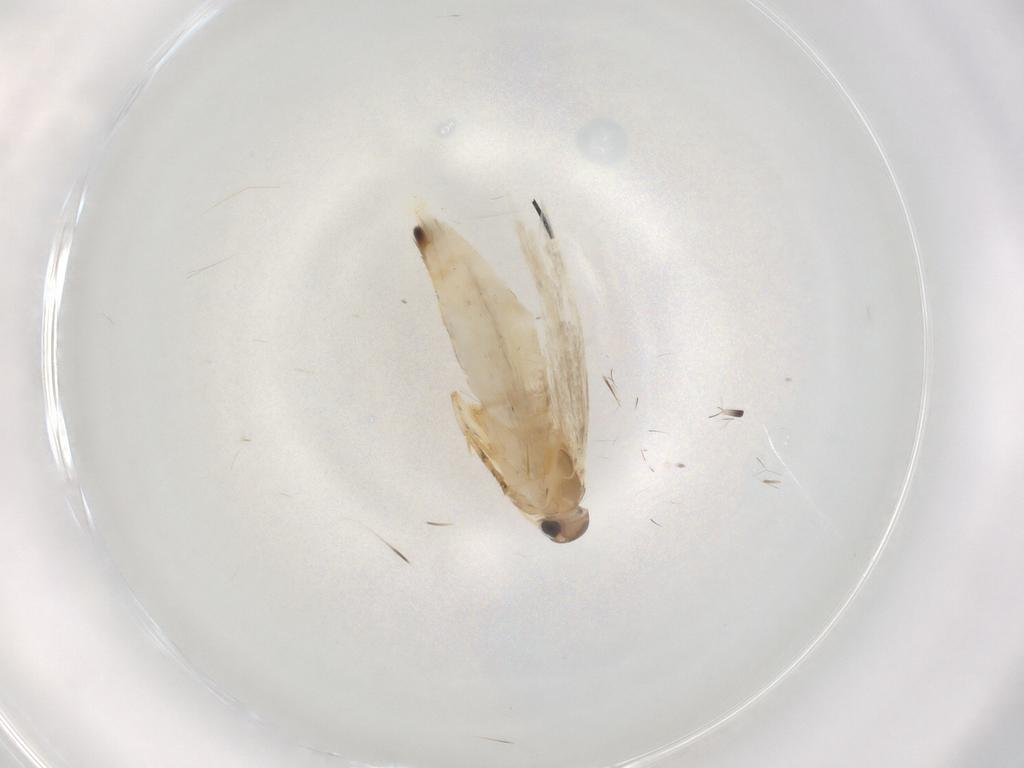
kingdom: Animalia
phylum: Arthropoda
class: Insecta
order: Lepidoptera
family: Gelechiidae
